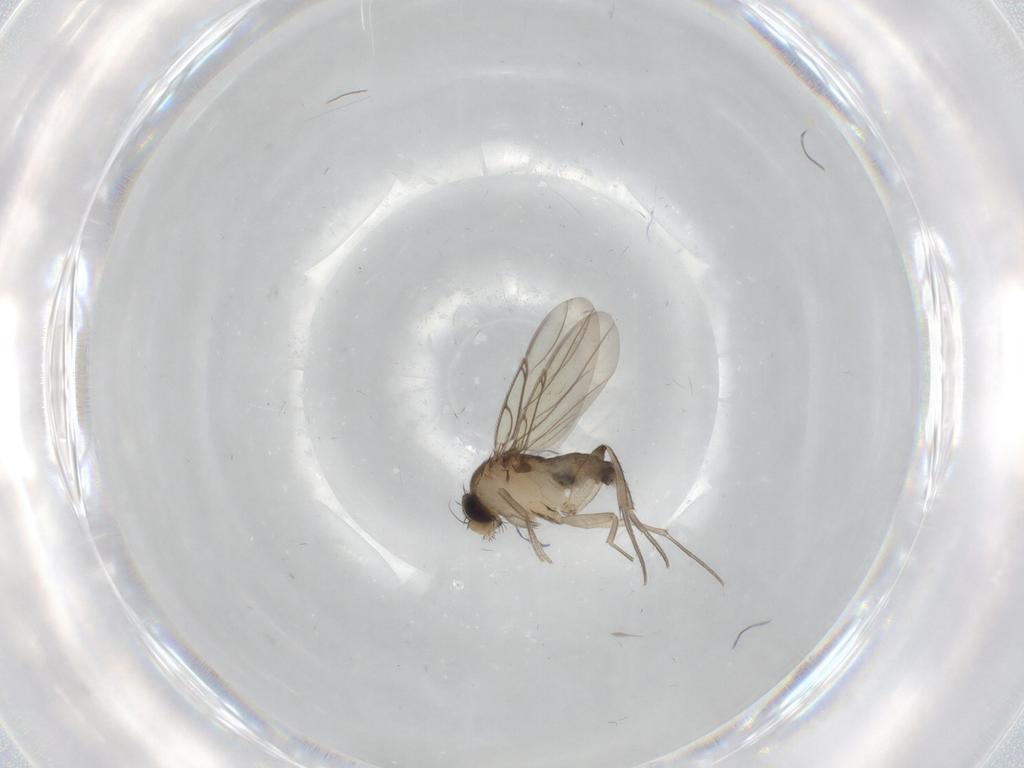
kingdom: Animalia
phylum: Arthropoda
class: Insecta
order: Diptera
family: Phoridae
